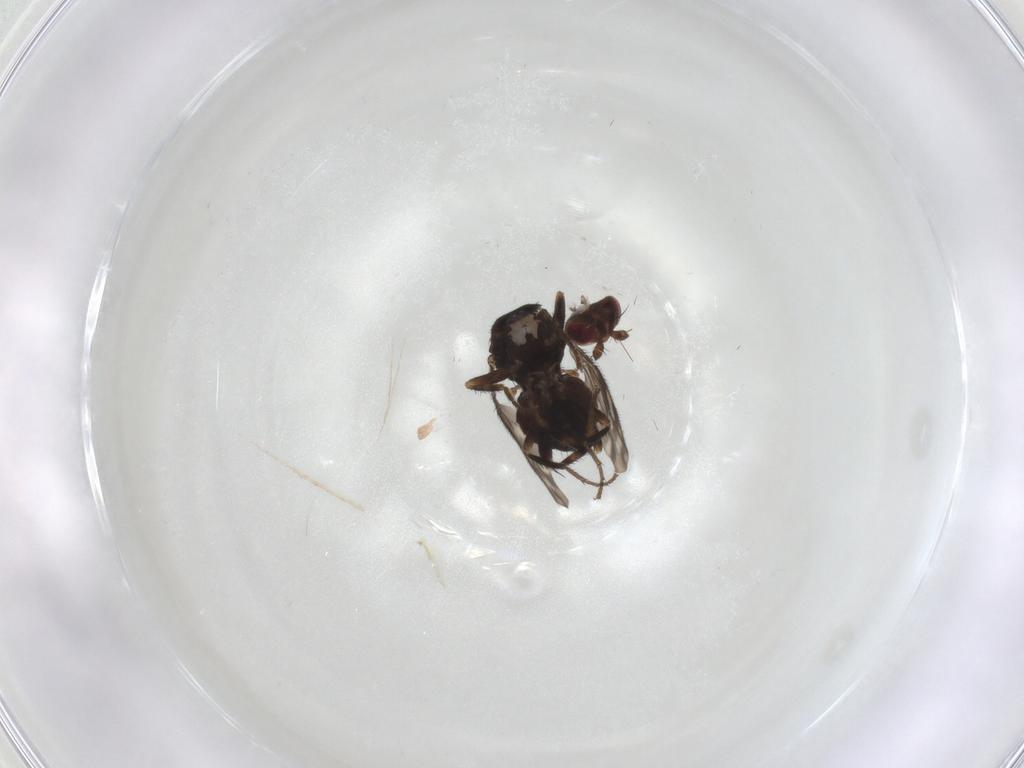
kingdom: Animalia
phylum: Arthropoda
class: Insecta
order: Diptera
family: Sphaeroceridae
